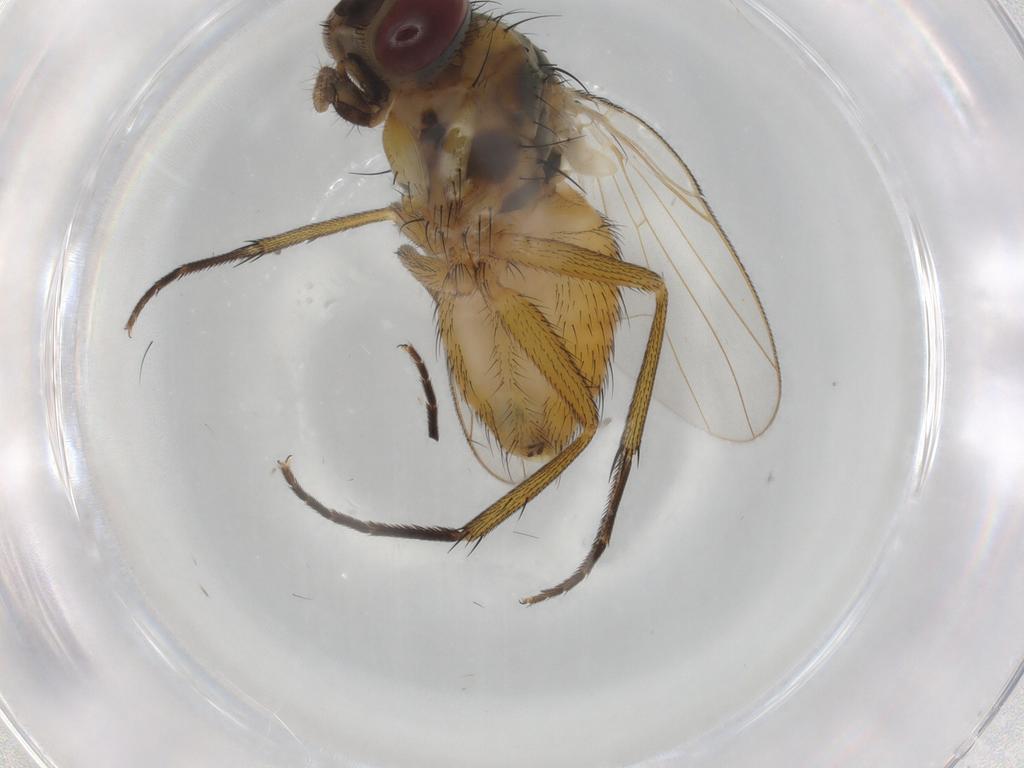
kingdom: Animalia
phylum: Arthropoda
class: Insecta
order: Diptera
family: Muscidae
